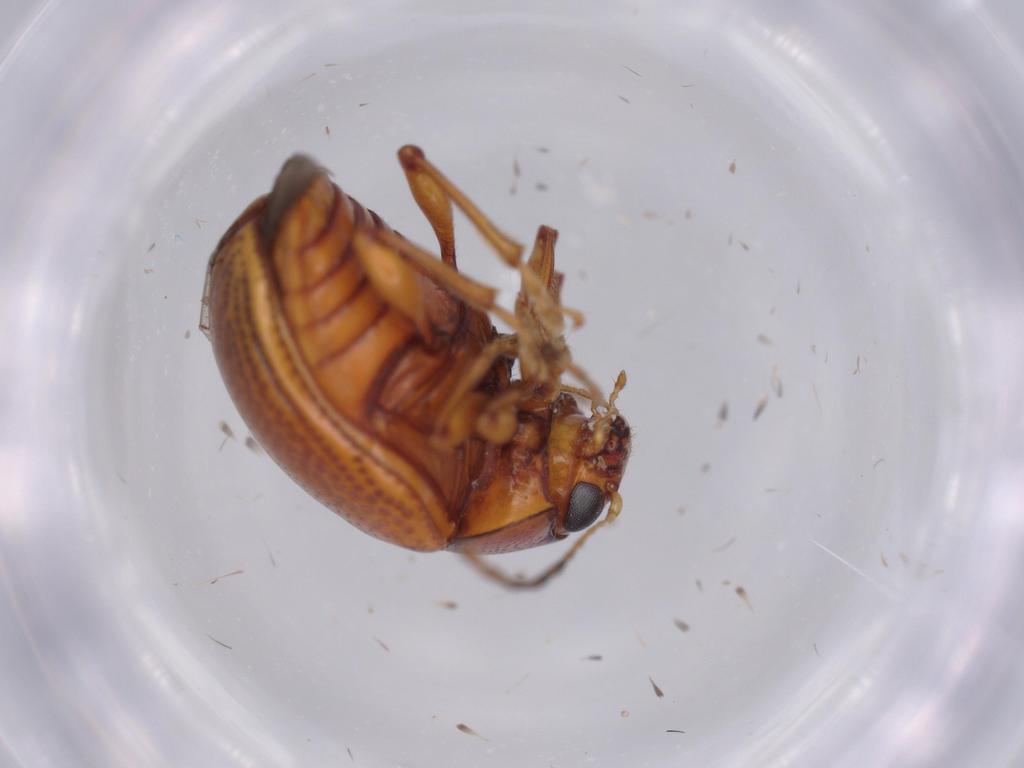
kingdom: Animalia
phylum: Arthropoda
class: Insecta
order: Coleoptera
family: Chrysomelidae
